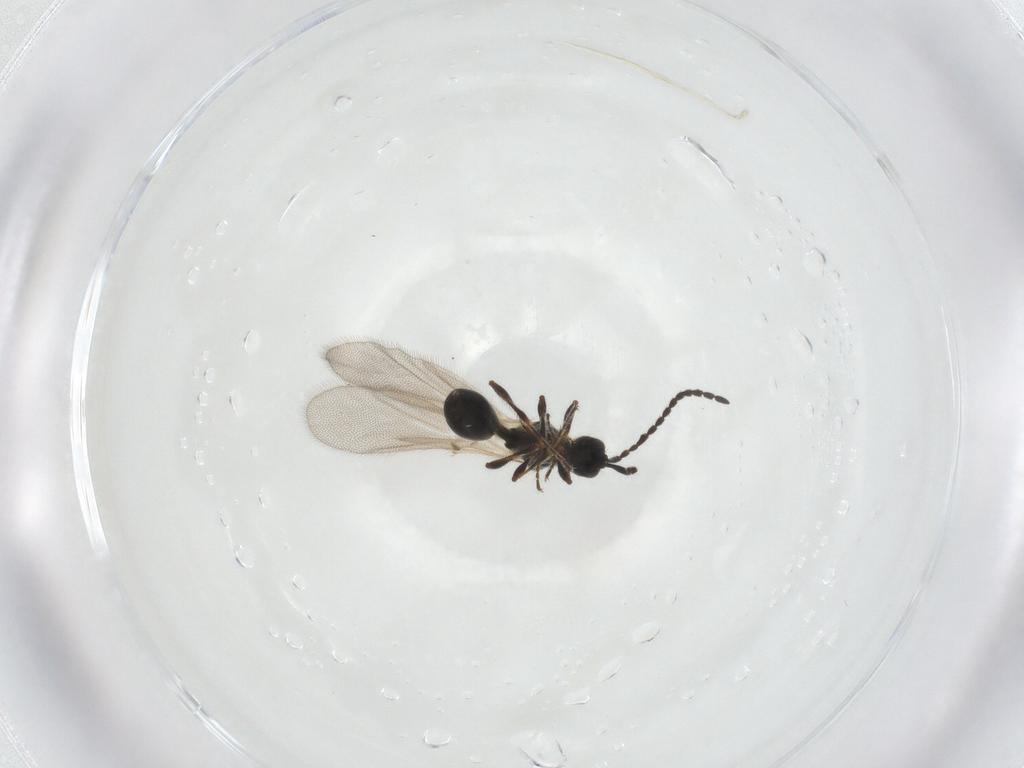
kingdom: Animalia
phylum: Arthropoda
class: Insecta
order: Hymenoptera
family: Diapriidae
